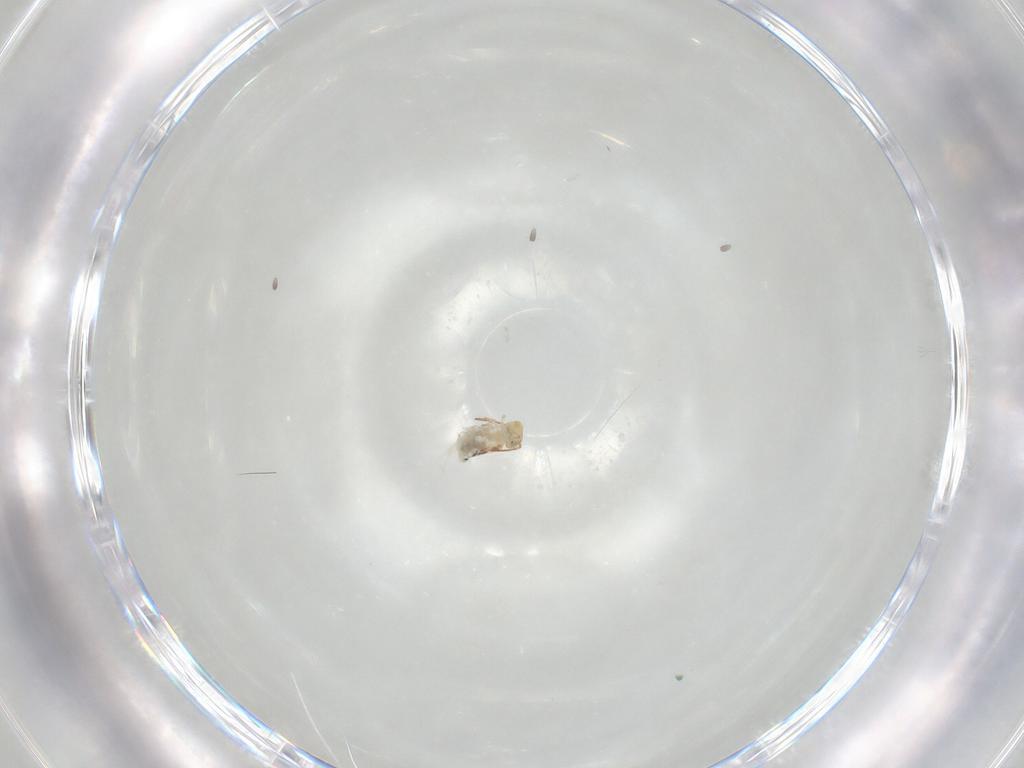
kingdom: Animalia
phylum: Arthropoda
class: Collembola
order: Symphypleona
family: Bourletiellidae
